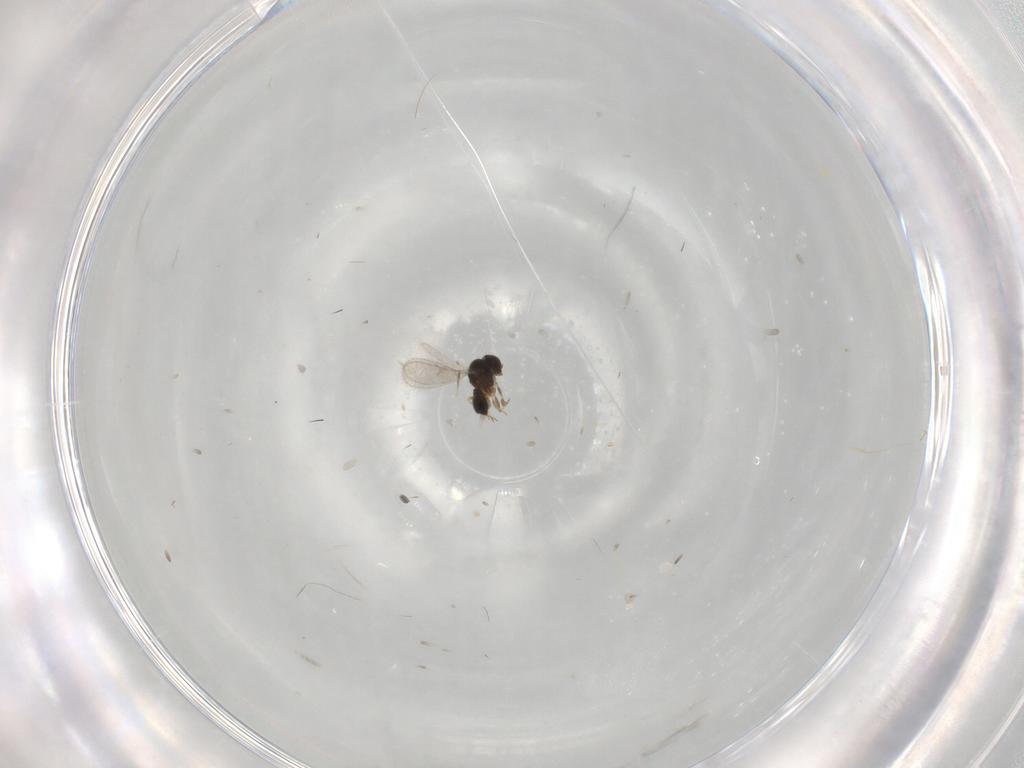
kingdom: Animalia
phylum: Arthropoda
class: Insecta
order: Hymenoptera
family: Scelionidae
